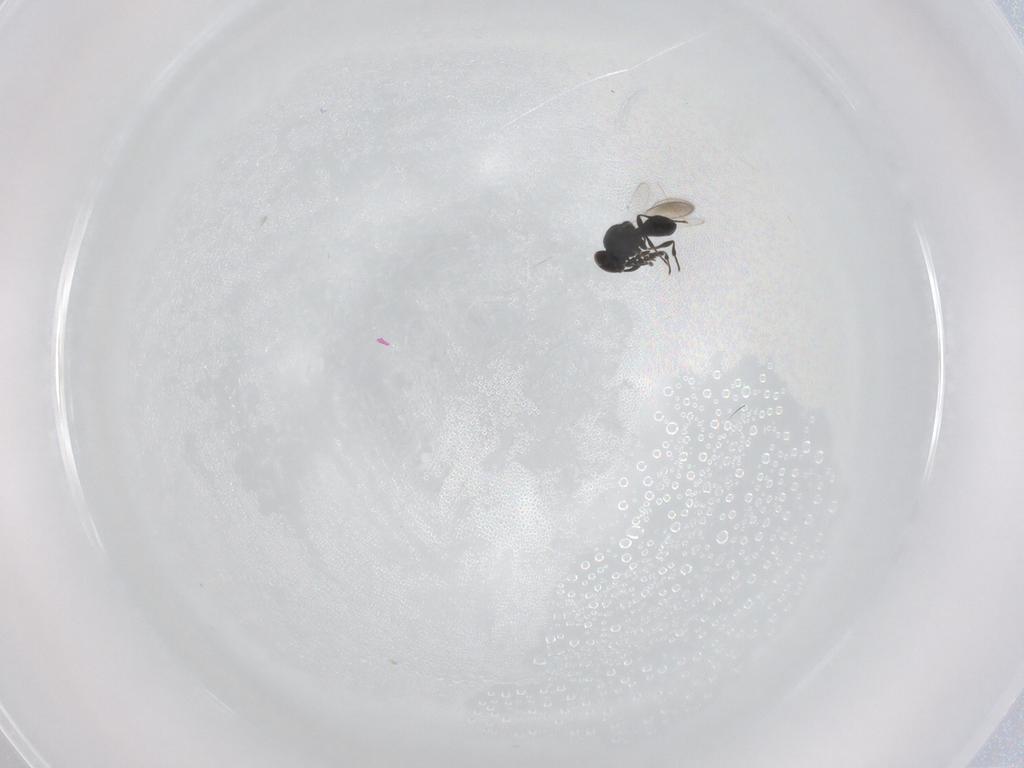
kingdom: Animalia
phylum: Arthropoda
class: Insecta
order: Hymenoptera
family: Platygastridae
